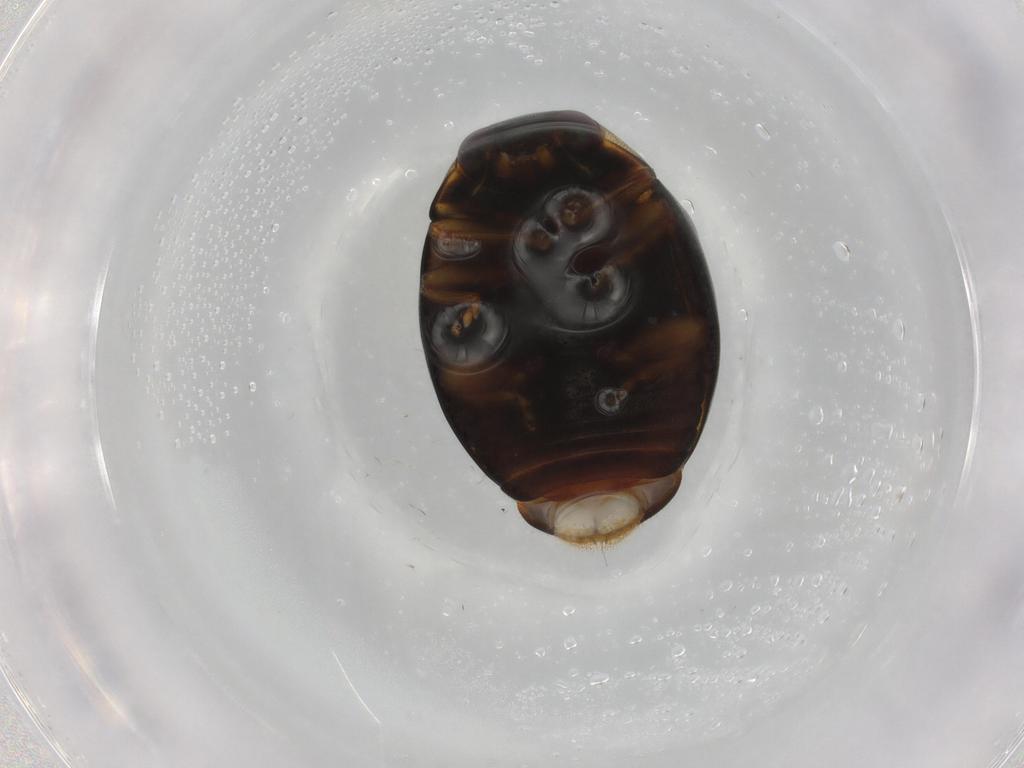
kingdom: Animalia
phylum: Arthropoda
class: Insecta
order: Coleoptera
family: Coccinellidae
